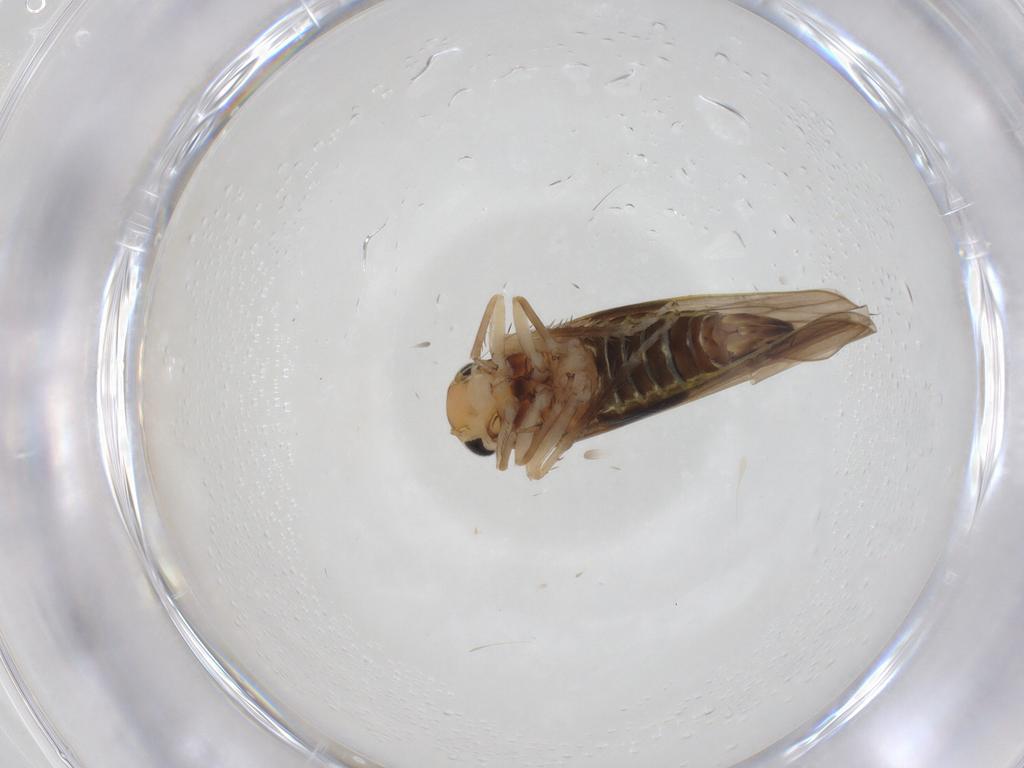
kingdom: Animalia
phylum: Arthropoda
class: Insecta
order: Hemiptera
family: Cicadellidae
